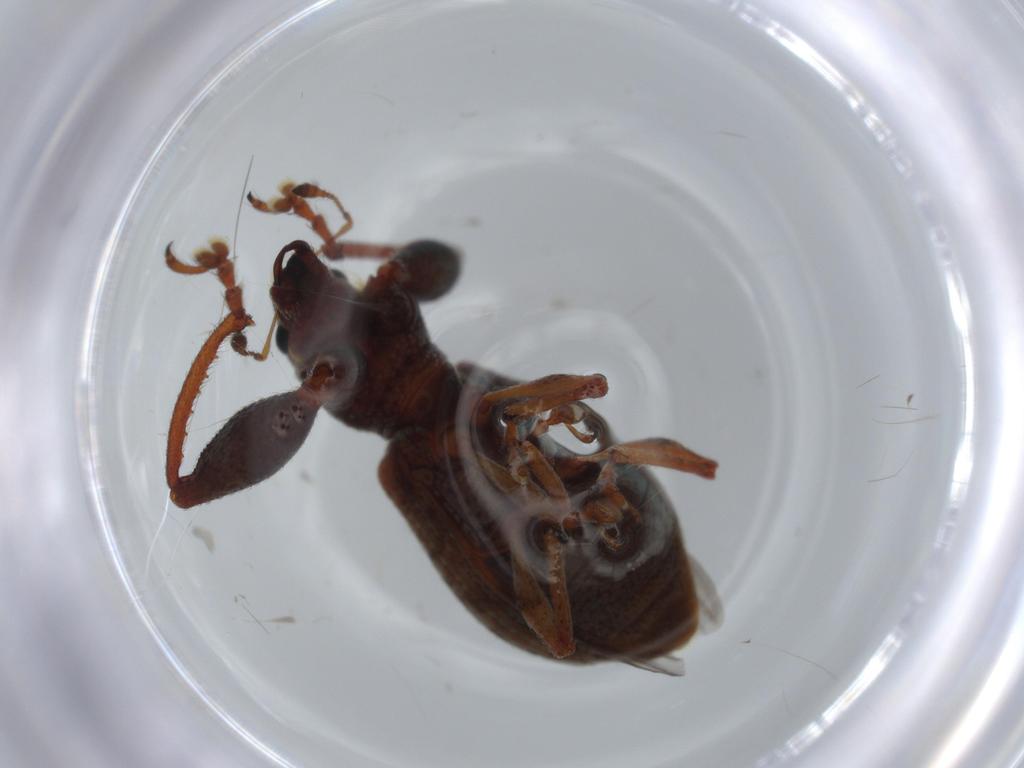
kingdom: Animalia
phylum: Arthropoda
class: Insecta
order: Coleoptera
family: Curculionidae
